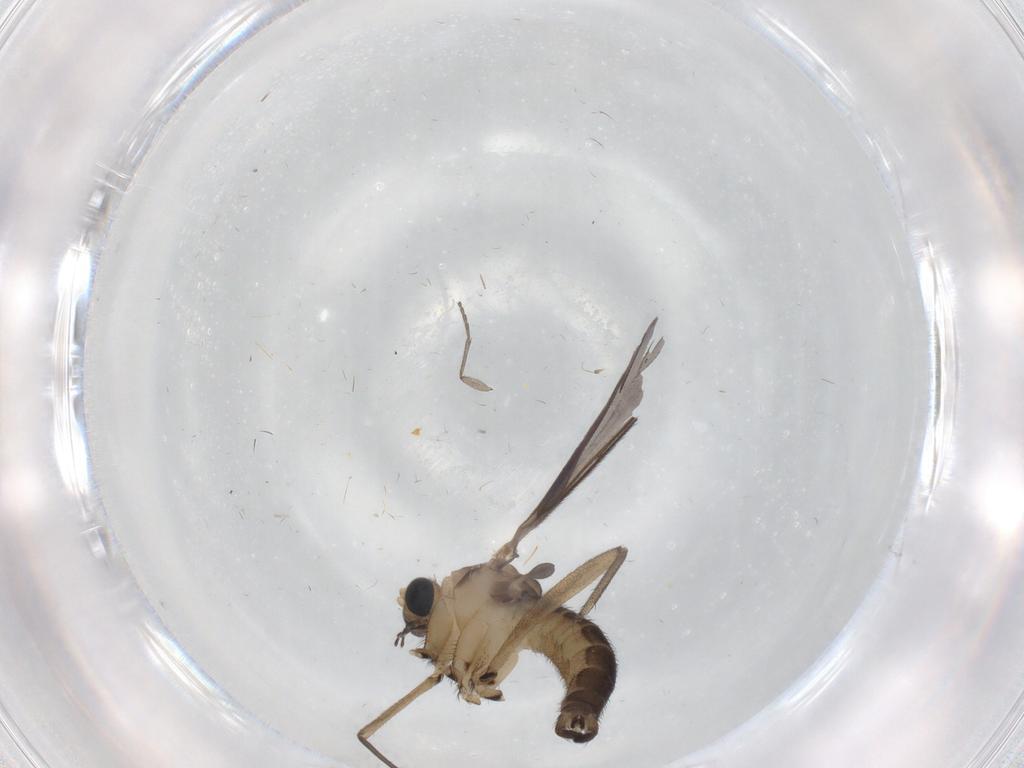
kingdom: Animalia
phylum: Arthropoda
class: Insecta
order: Diptera
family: Sciaridae
